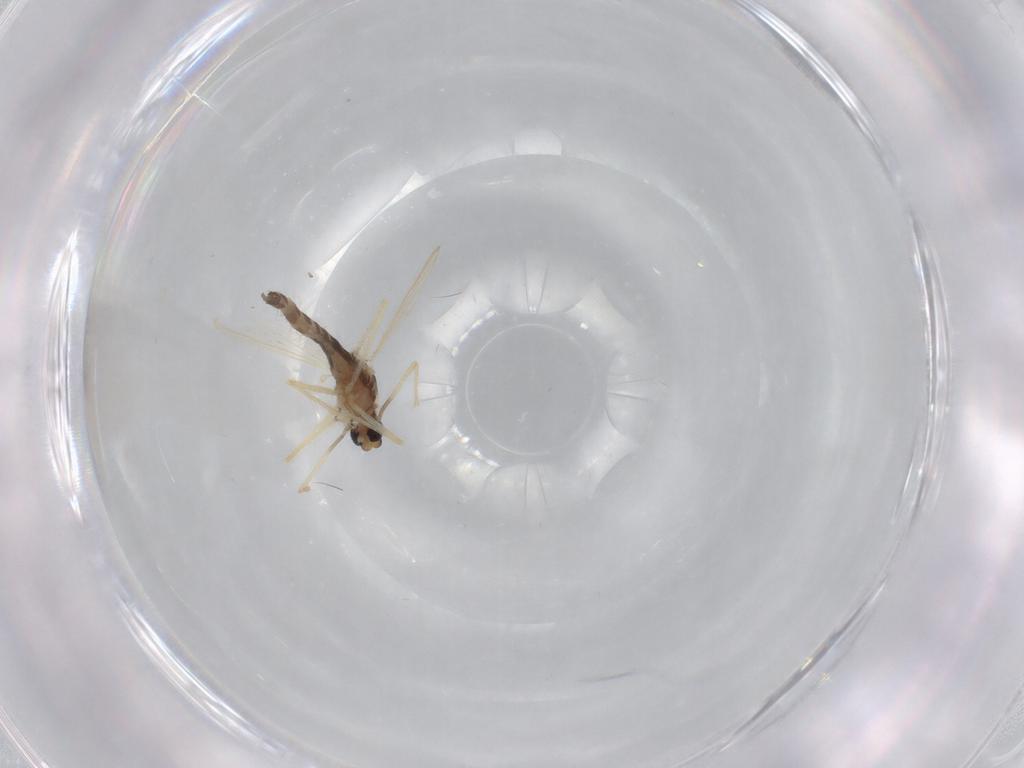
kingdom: Animalia
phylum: Arthropoda
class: Insecta
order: Diptera
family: Chironomidae
